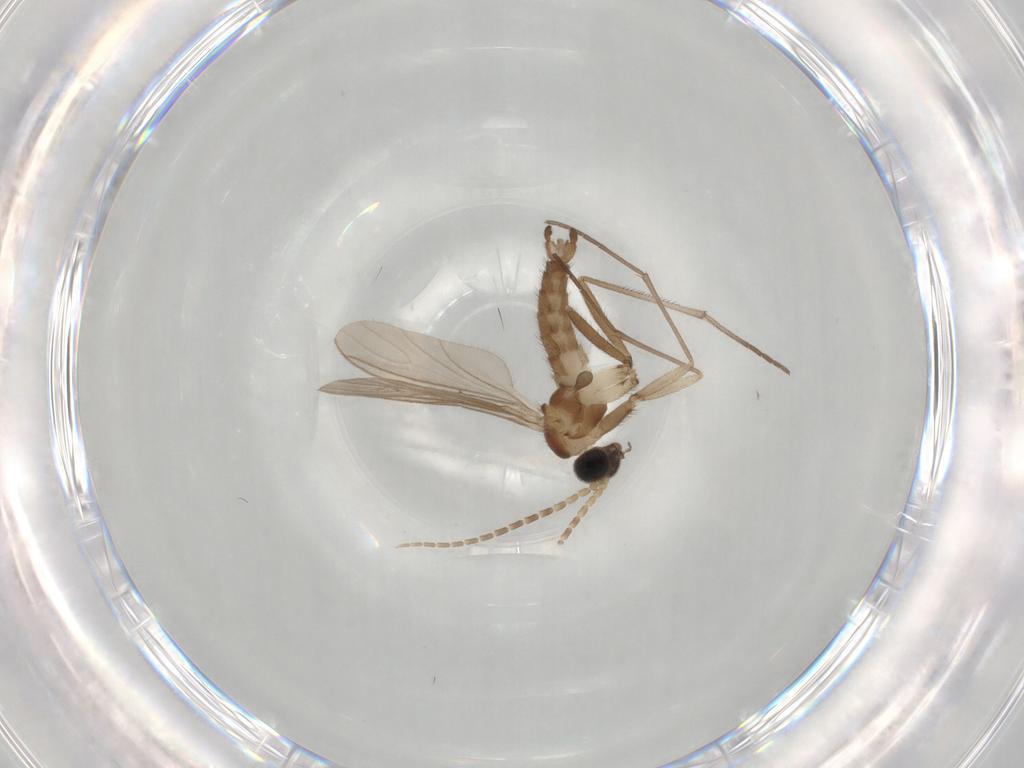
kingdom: Animalia
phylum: Arthropoda
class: Insecta
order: Diptera
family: Sciaridae
